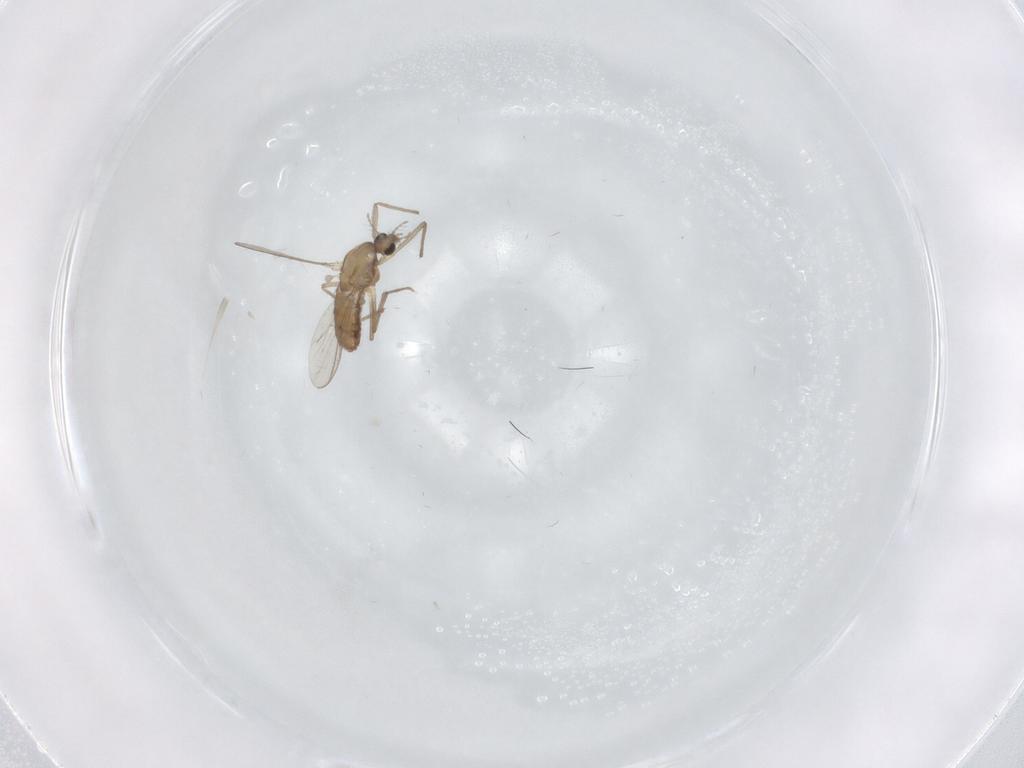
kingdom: Animalia
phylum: Arthropoda
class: Insecta
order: Diptera
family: Chironomidae
